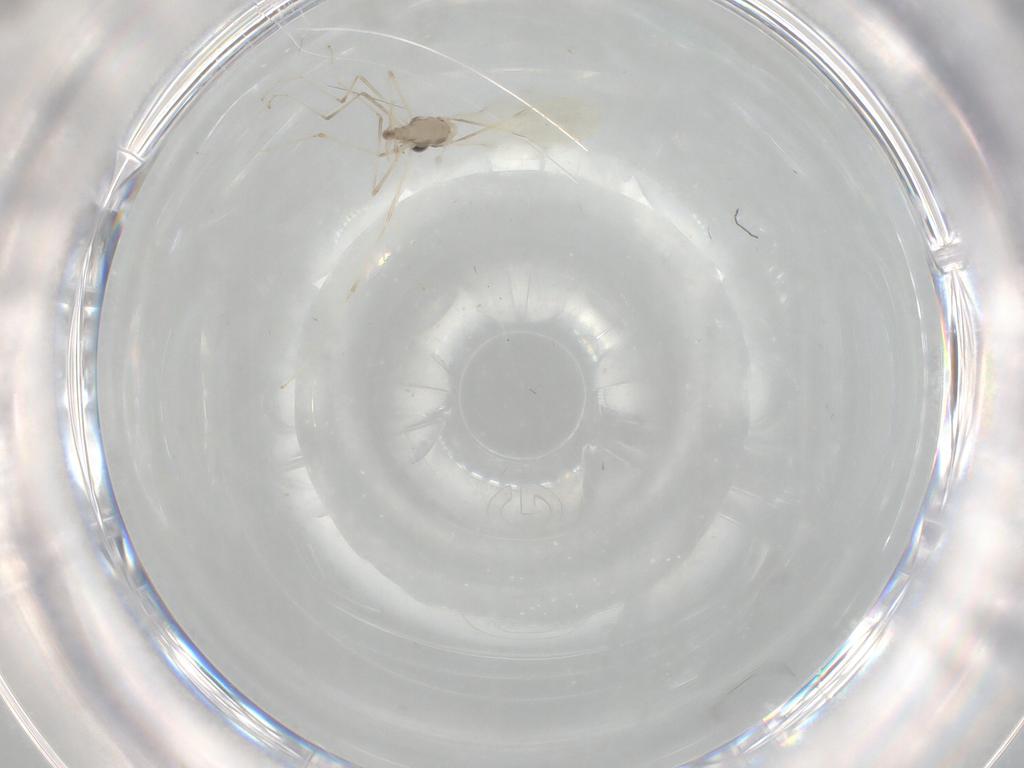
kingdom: Animalia
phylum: Arthropoda
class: Insecta
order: Diptera
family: Cecidomyiidae
